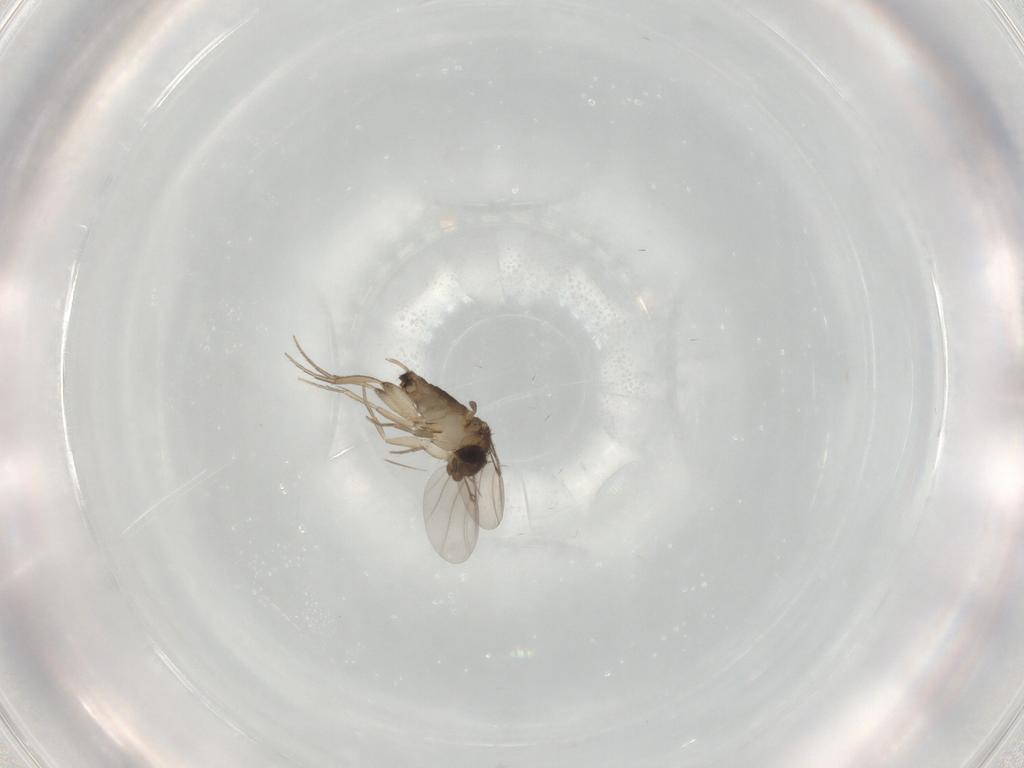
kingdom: Animalia
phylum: Arthropoda
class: Insecta
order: Diptera
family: Phoridae
